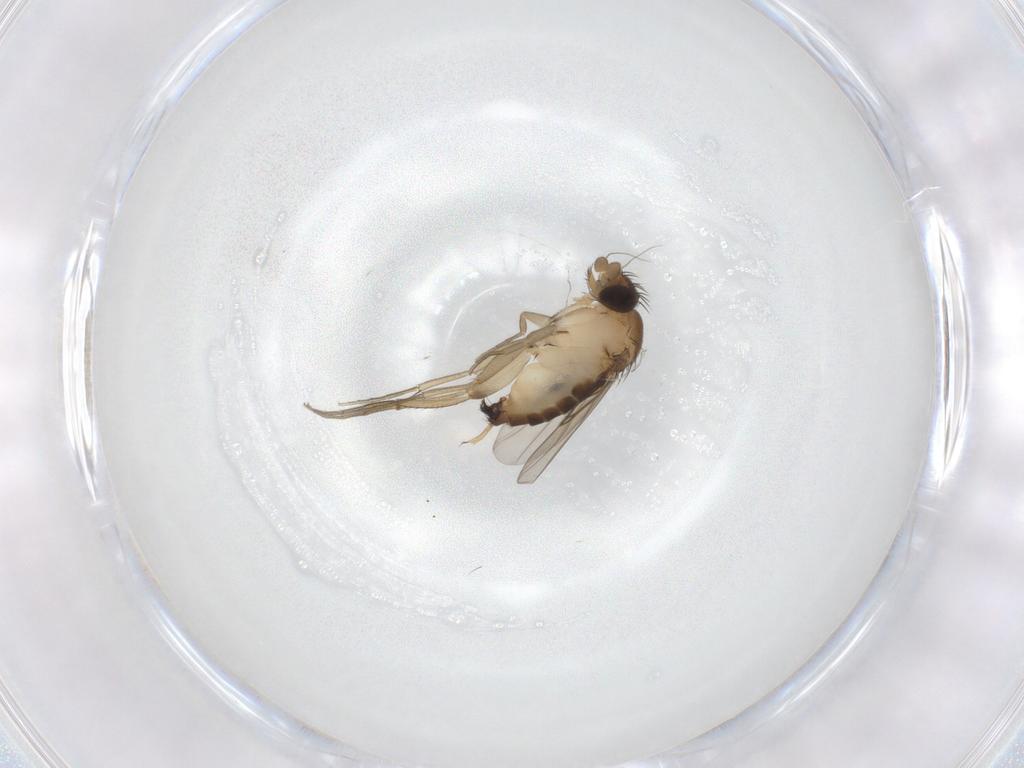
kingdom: Animalia
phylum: Arthropoda
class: Insecta
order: Diptera
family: Phoridae
